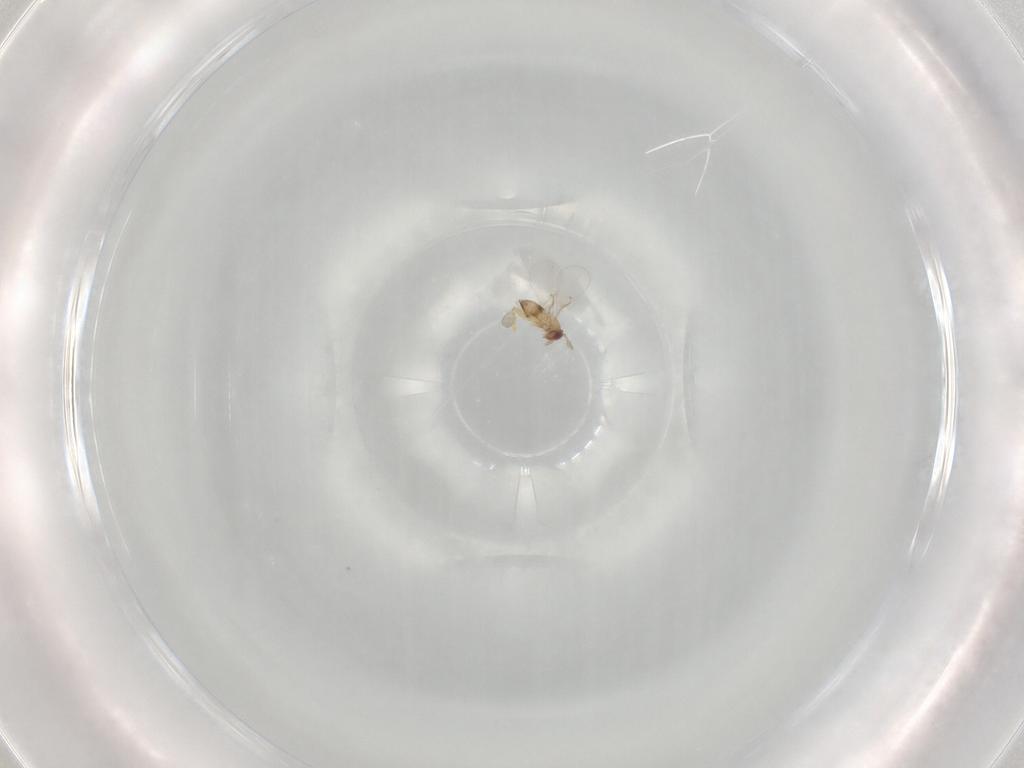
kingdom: Animalia
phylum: Arthropoda
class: Insecta
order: Hymenoptera
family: Trichogrammatidae
